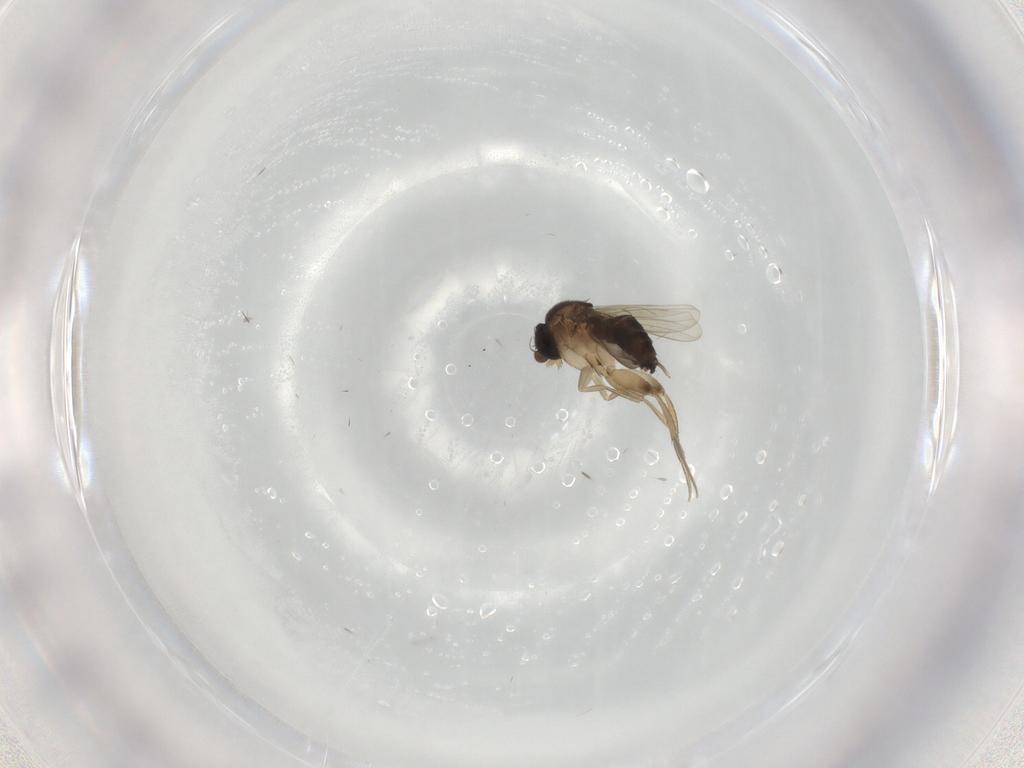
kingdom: Animalia
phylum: Arthropoda
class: Insecta
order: Diptera
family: Phoridae
